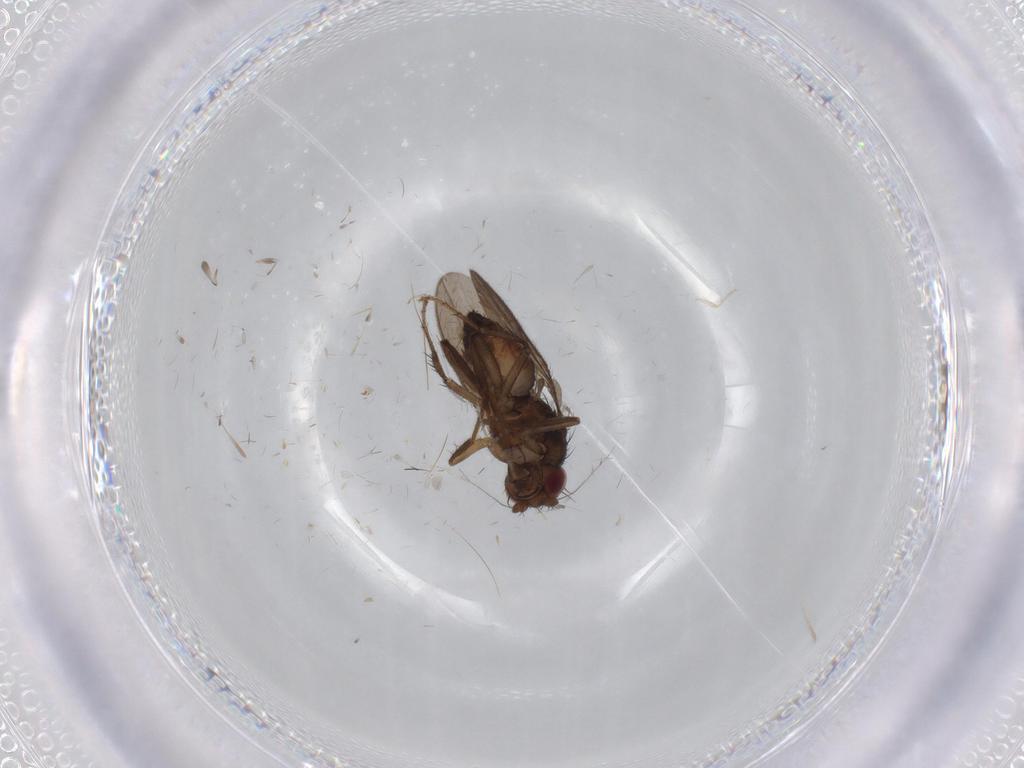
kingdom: Animalia
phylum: Arthropoda
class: Insecta
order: Diptera
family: Sphaeroceridae
